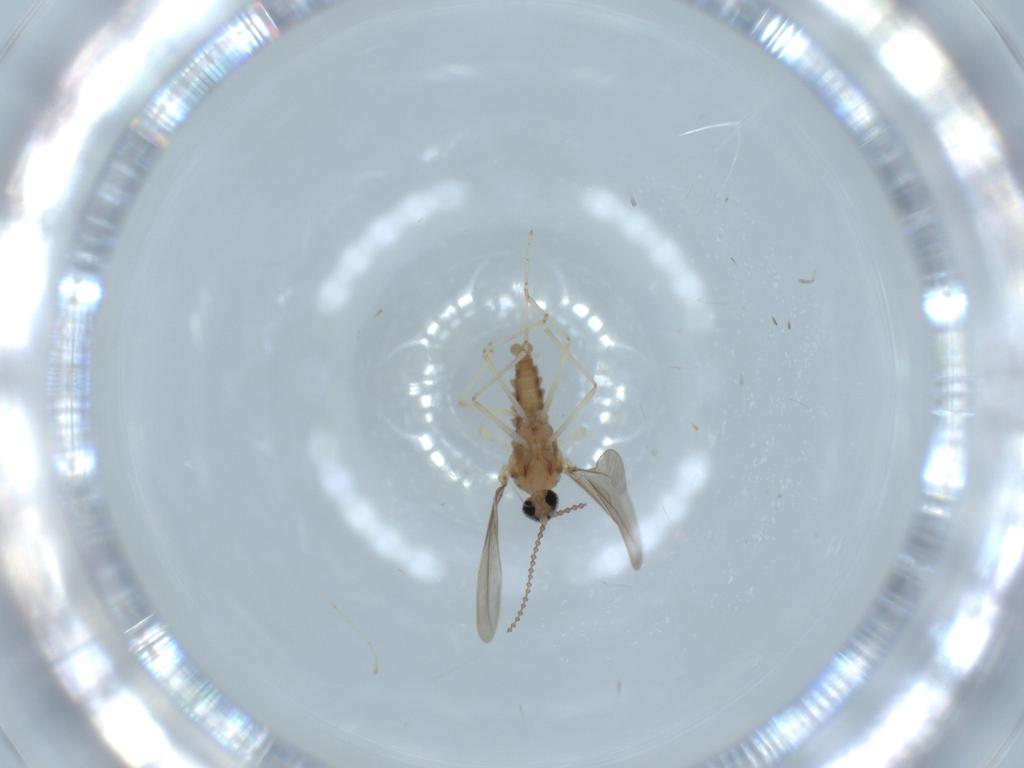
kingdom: Animalia
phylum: Arthropoda
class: Insecta
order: Diptera
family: Cecidomyiidae
